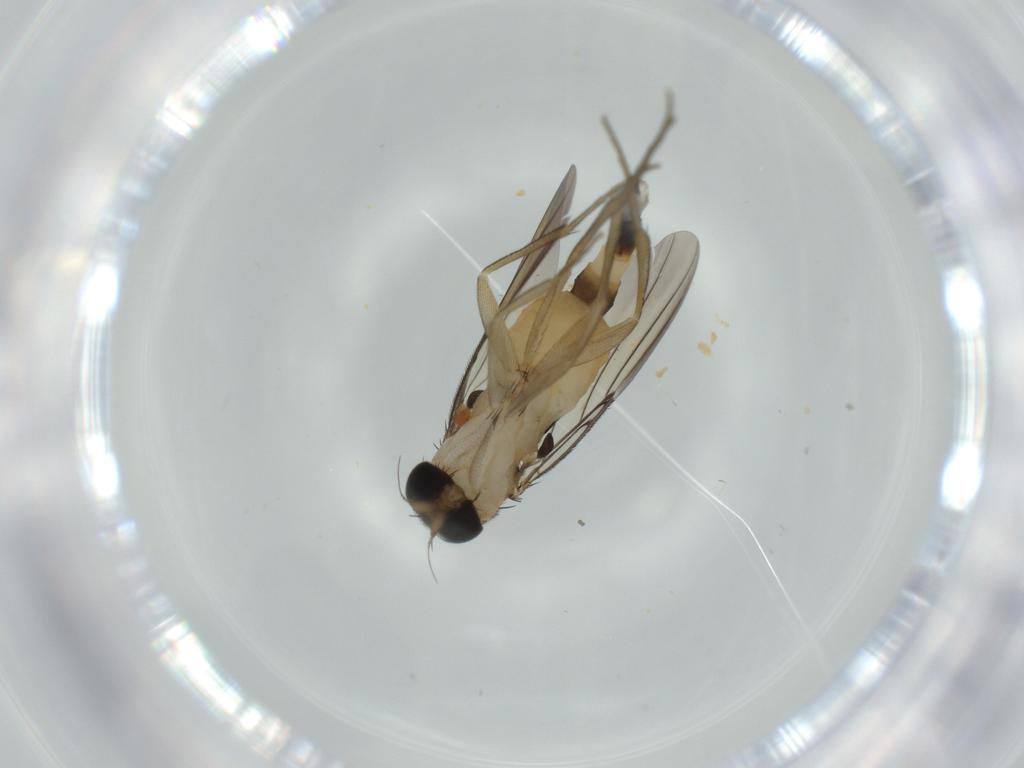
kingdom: Animalia
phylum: Arthropoda
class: Insecta
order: Diptera
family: Phoridae
